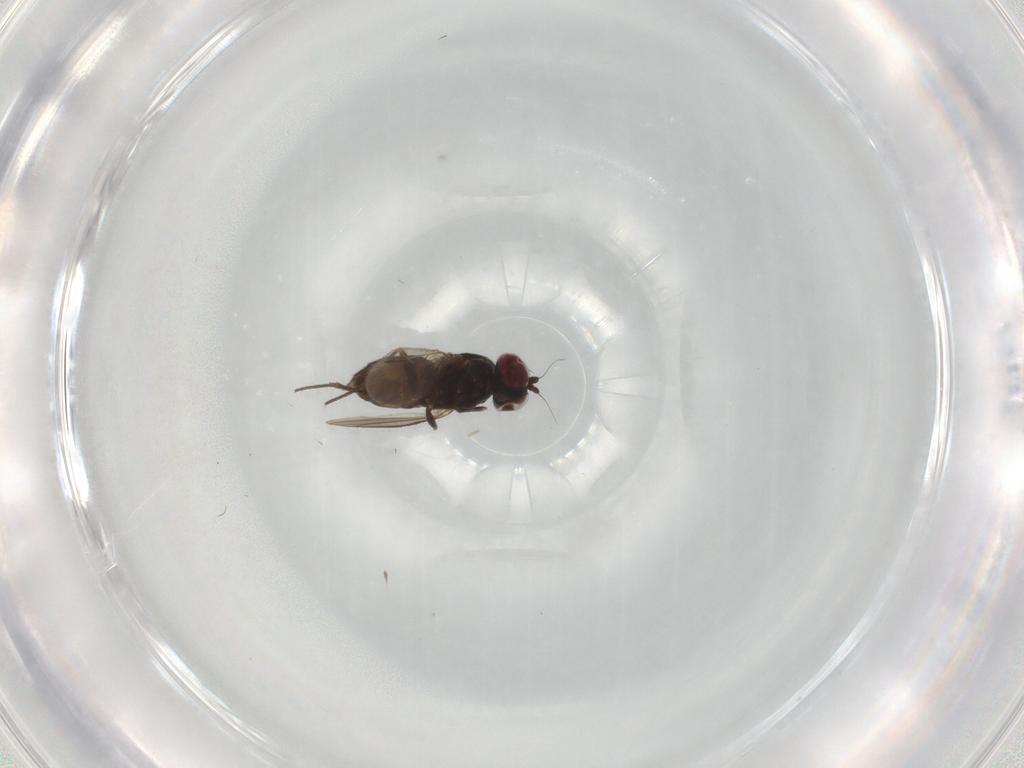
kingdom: Animalia
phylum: Arthropoda
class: Insecta
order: Diptera
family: Dolichopodidae
